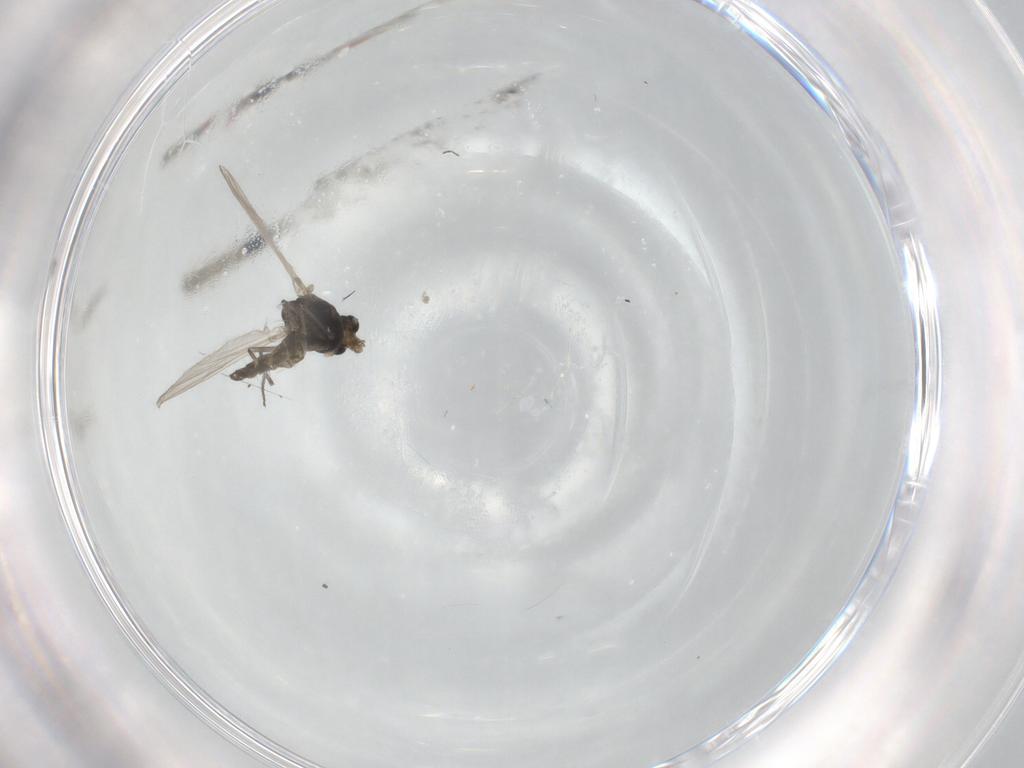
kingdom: Animalia
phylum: Arthropoda
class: Insecta
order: Diptera
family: Chironomidae
